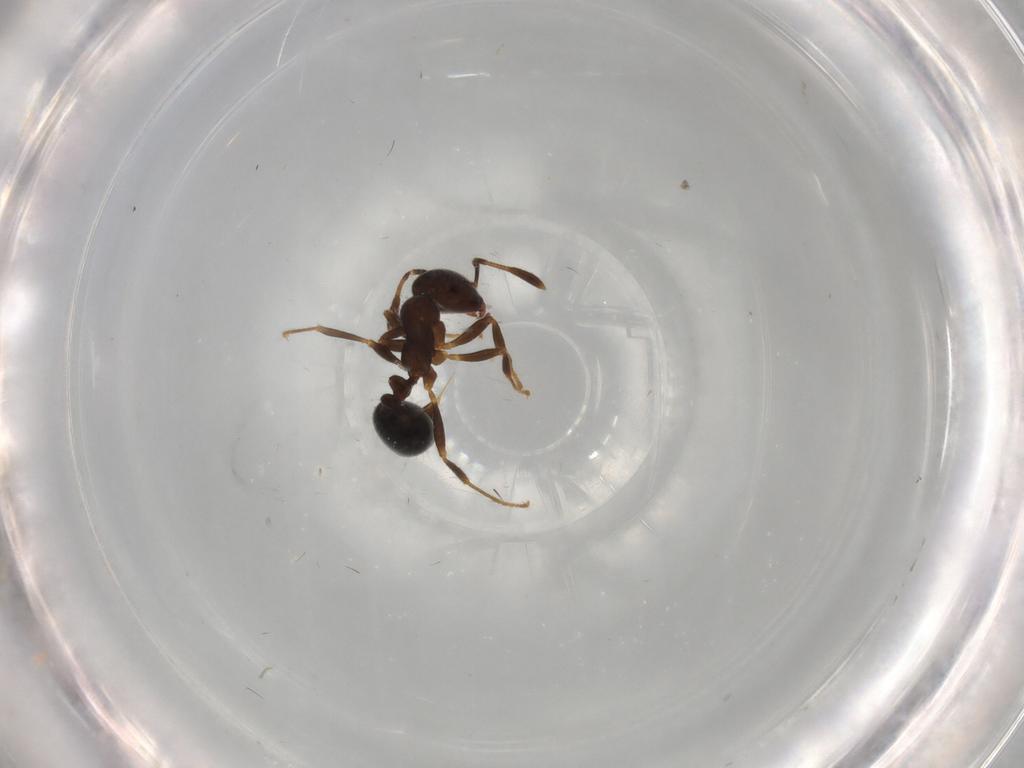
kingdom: Animalia
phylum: Arthropoda
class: Insecta
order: Hymenoptera
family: Formicidae
